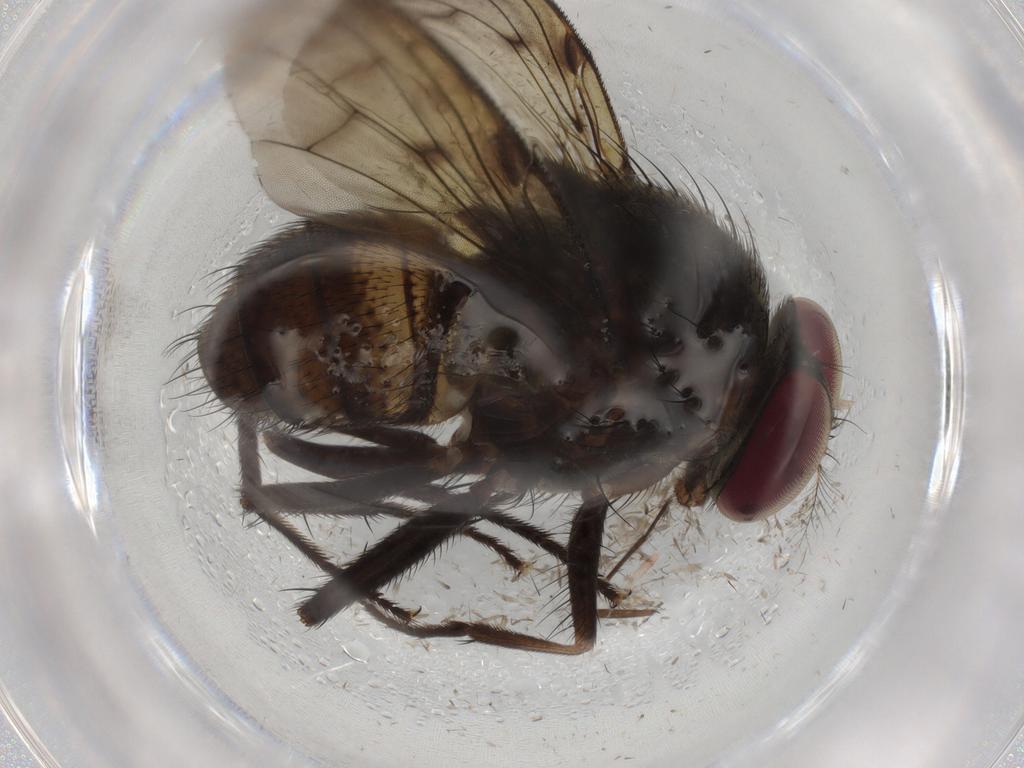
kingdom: Animalia
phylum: Arthropoda
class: Insecta
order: Diptera
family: Muscidae
